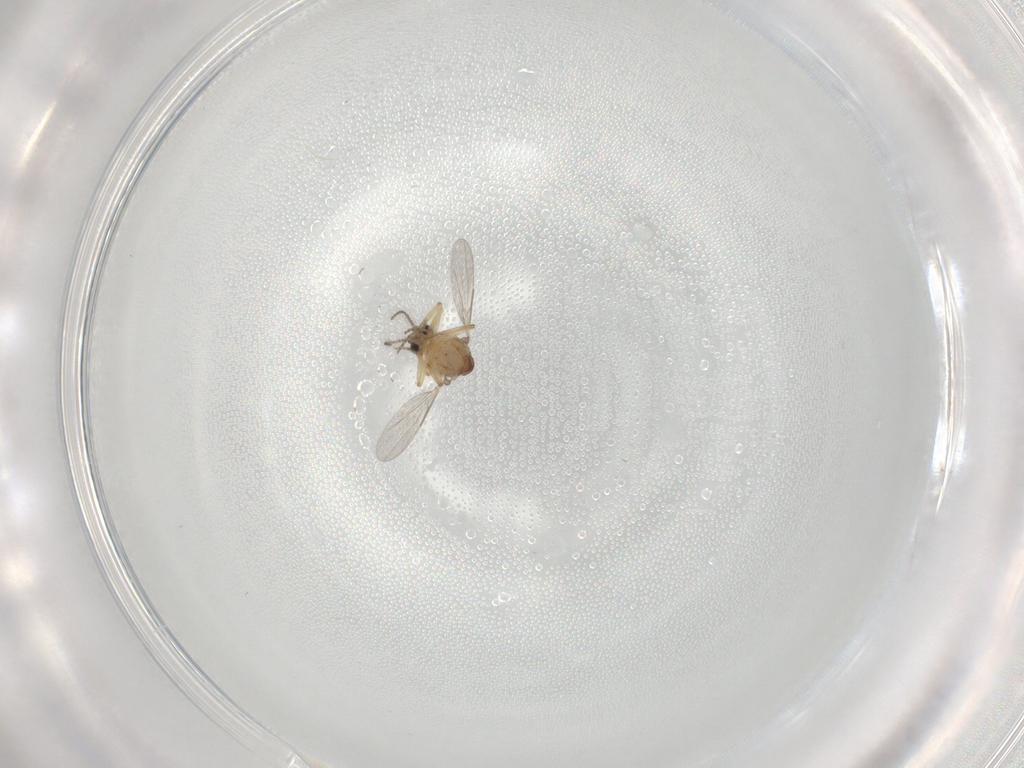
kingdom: Animalia
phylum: Arthropoda
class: Insecta
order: Diptera
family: Ceratopogonidae
